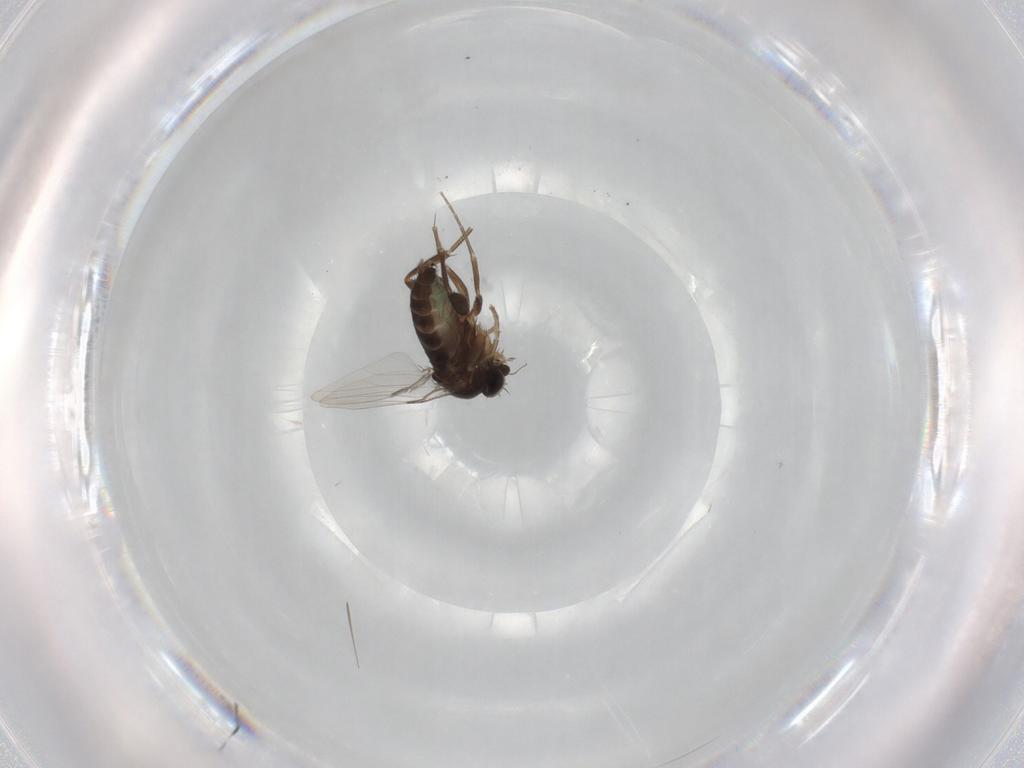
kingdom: Animalia
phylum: Arthropoda
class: Insecta
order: Diptera
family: Phoridae
